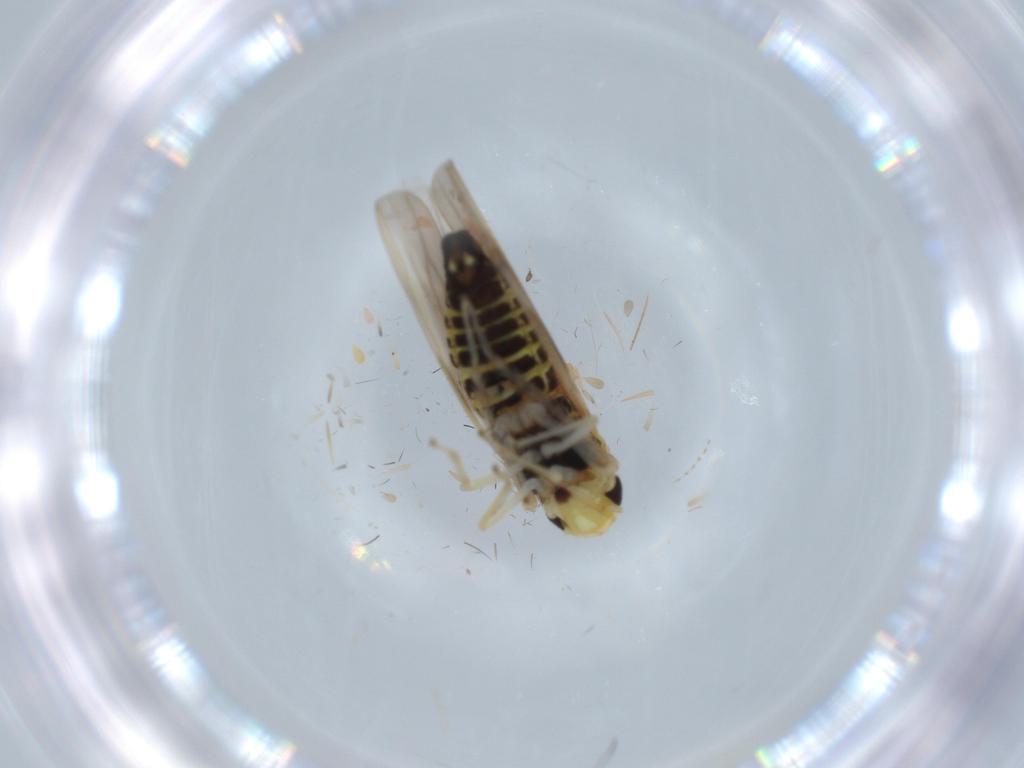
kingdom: Animalia
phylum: Arthropoda
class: Insecta
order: Hemiptera
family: Cicadellidae
